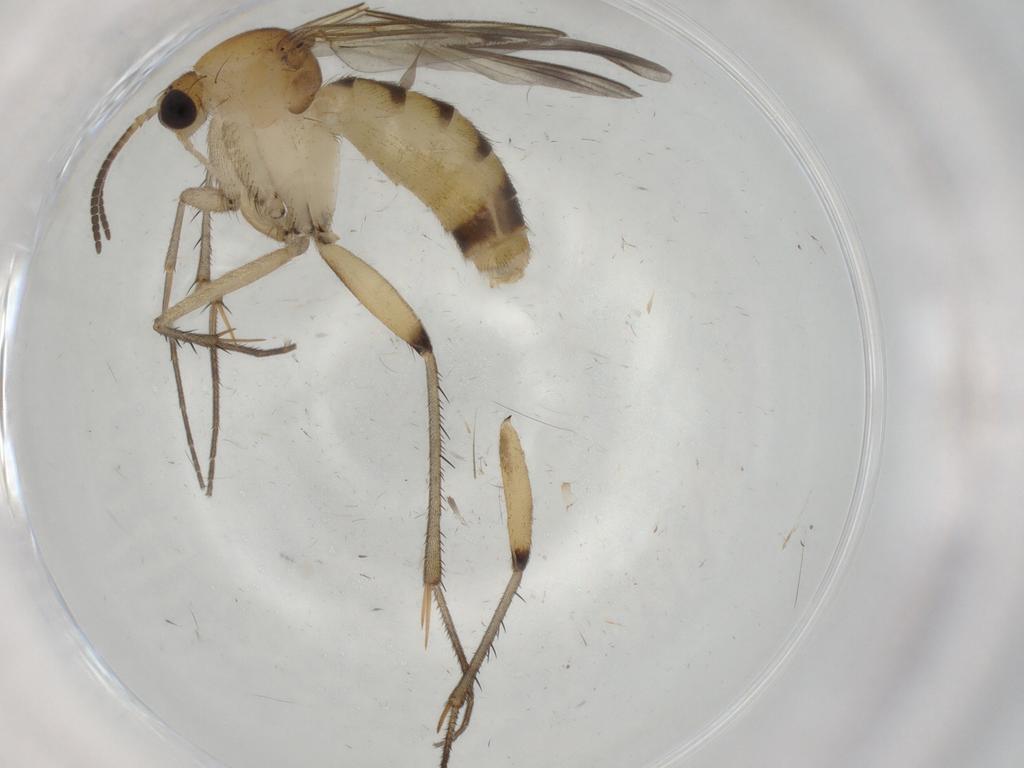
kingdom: Animalia
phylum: Arthropoda
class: Insecta
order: Diptera
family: Mycetophilidae
